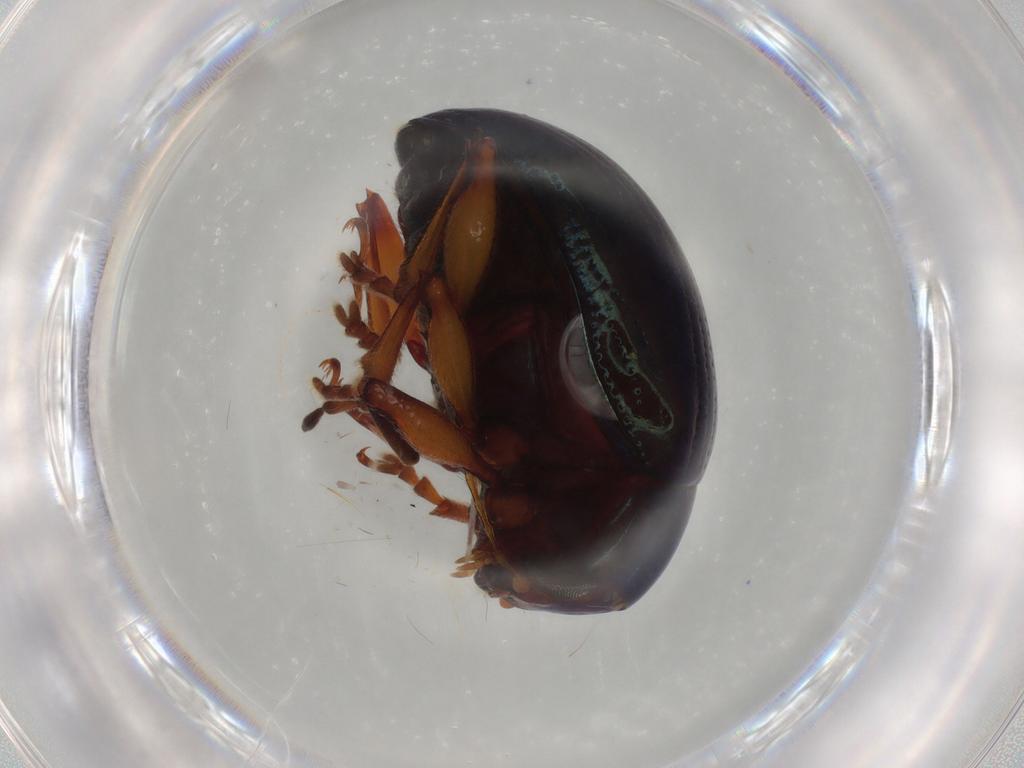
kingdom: Animalia
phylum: Arthropoda
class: Insecta
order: Coleoptera
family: Chrysomelidae
